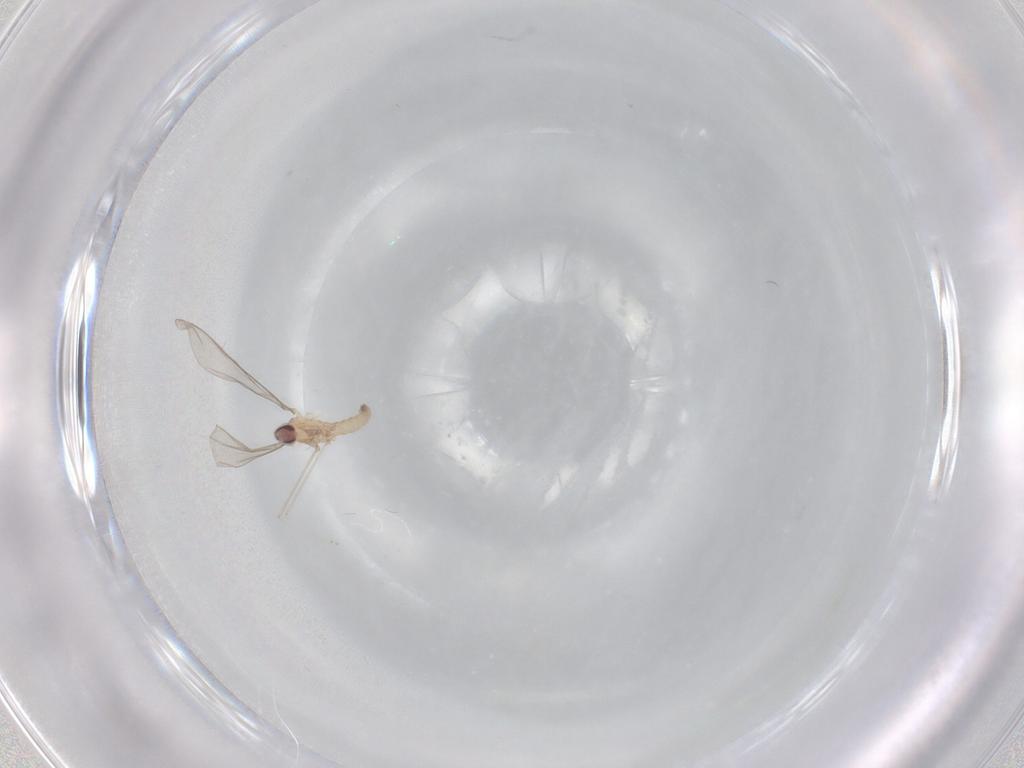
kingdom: Animalia
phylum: Arthropoda
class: Insecta
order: Diptera
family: Cecidomyiidae
